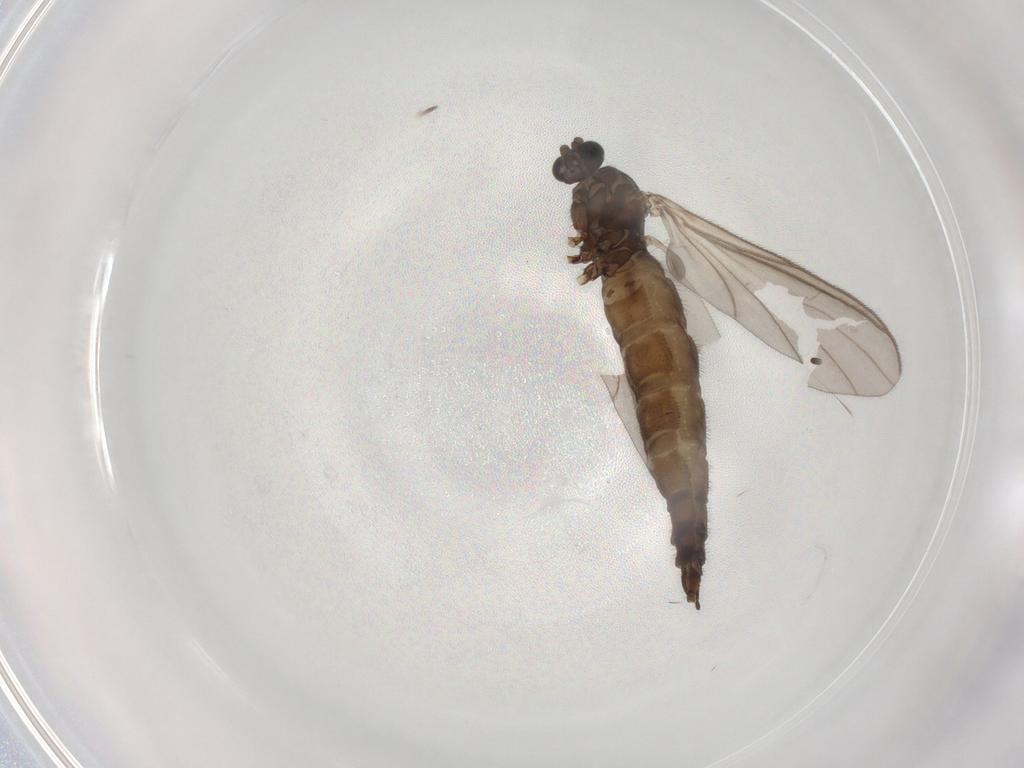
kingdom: Animalia
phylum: Arthropoda
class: Insecta
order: Diptera
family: Sciaridae
